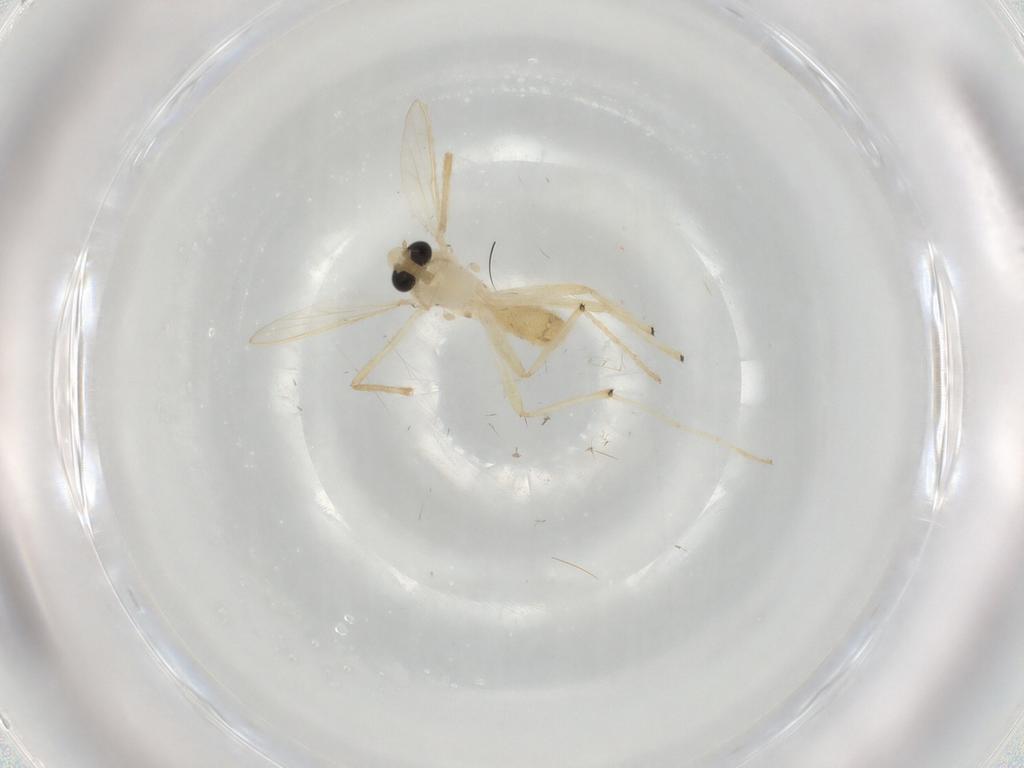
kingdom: Animalia
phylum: Arthropoda
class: Insecta
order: Diptera
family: Chironomidae
